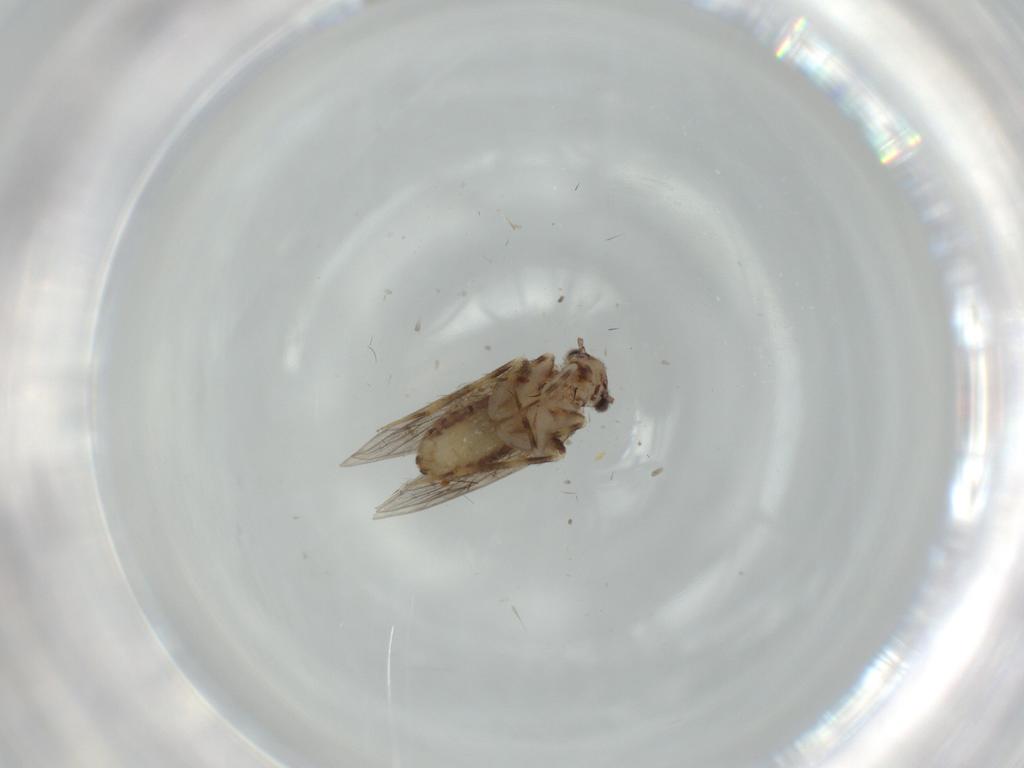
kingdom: Animalia
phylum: Arthropoda
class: Insecta
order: Psocodea
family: Lepidopsocidae
